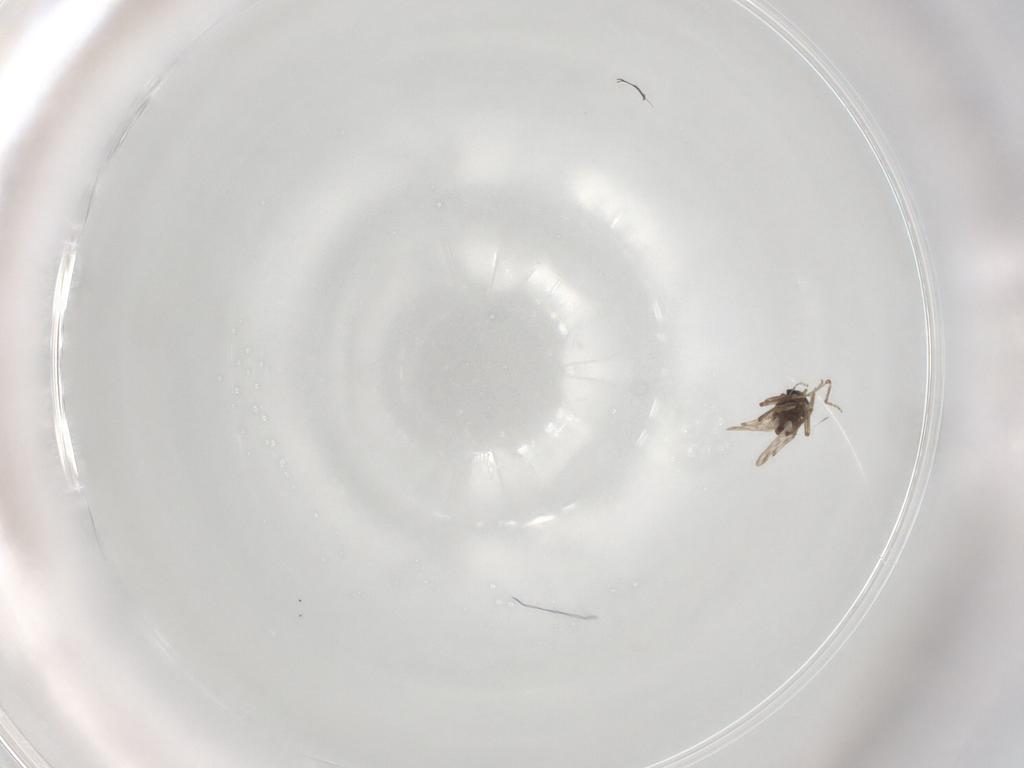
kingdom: Animalia
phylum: Arthropoda
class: Insecta
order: Diptera
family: Ceratopogonidae
